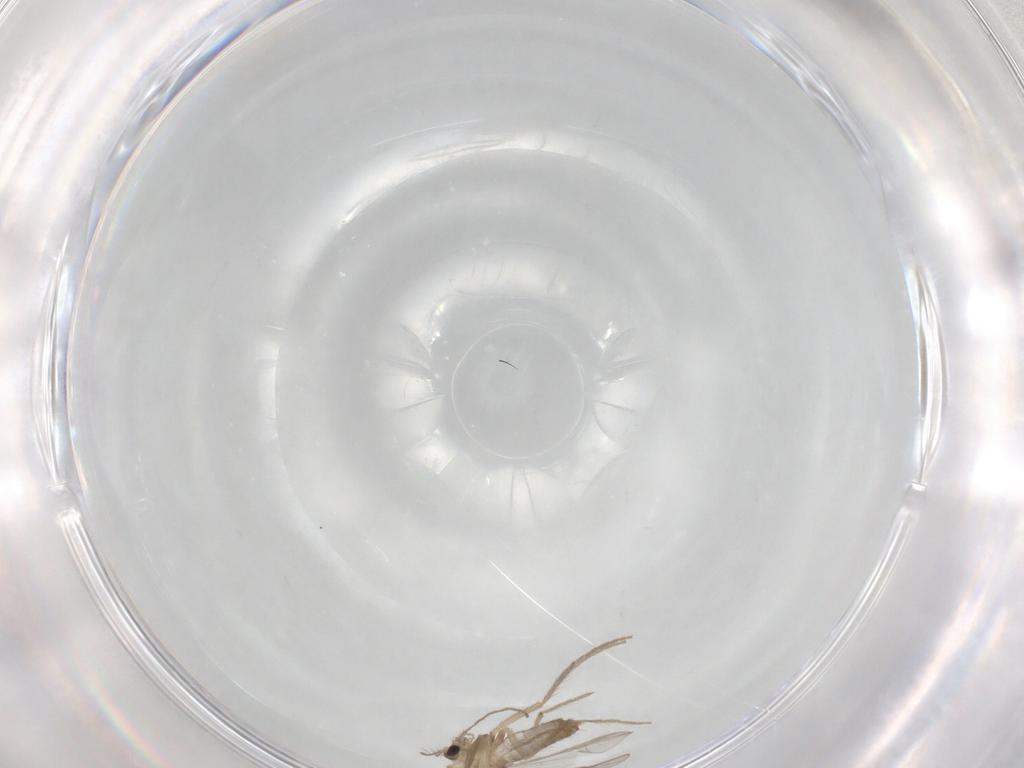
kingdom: Animalia
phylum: Arthropoda
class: Insecta
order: Diptera
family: Chironomidae
